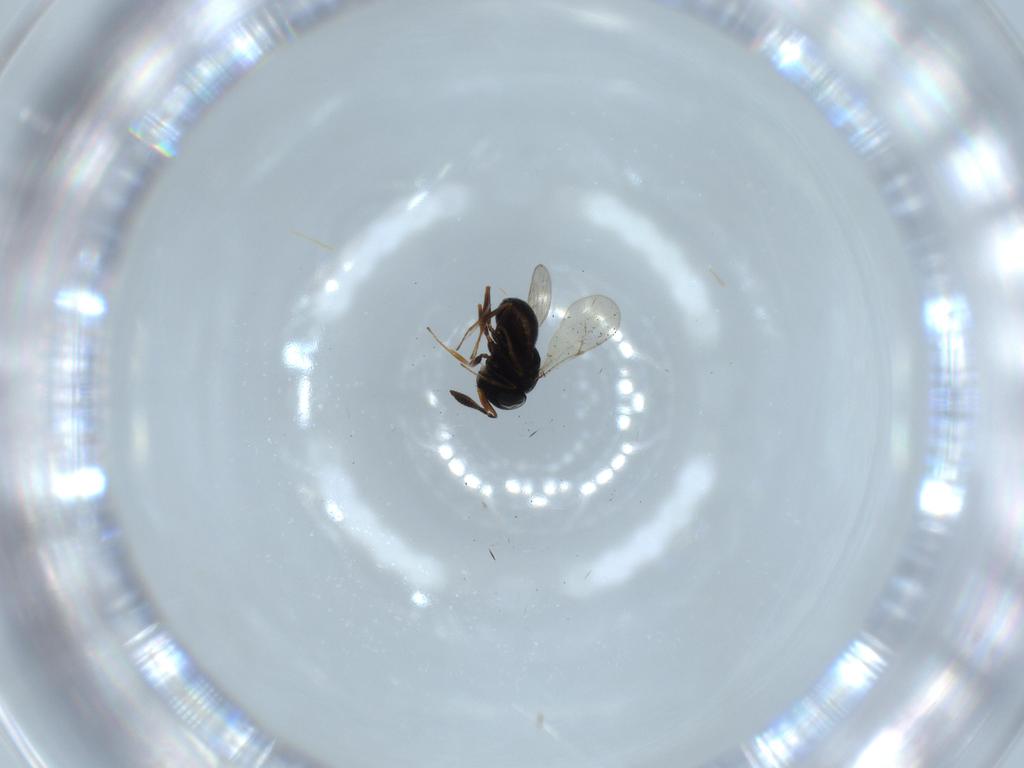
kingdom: Animalia
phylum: Arthropoda
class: Insecta
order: Hymenoptera
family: Scelionidae
